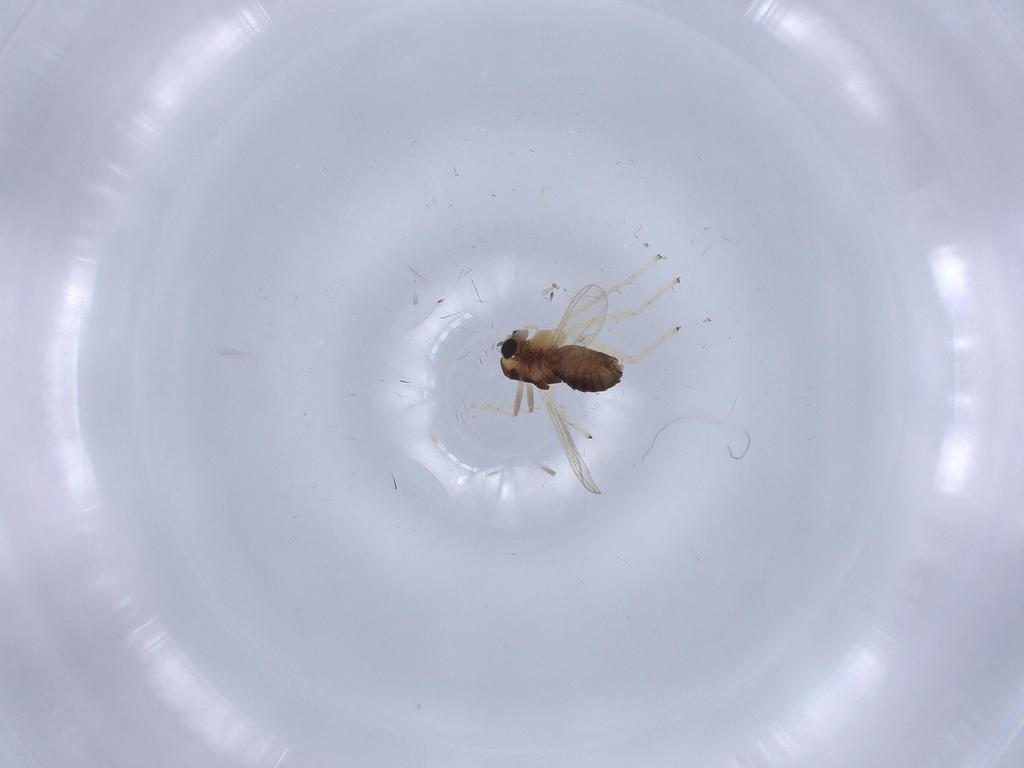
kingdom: Animalia
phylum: Arthropoda
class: Insecta
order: Diptera
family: Chironomidae
